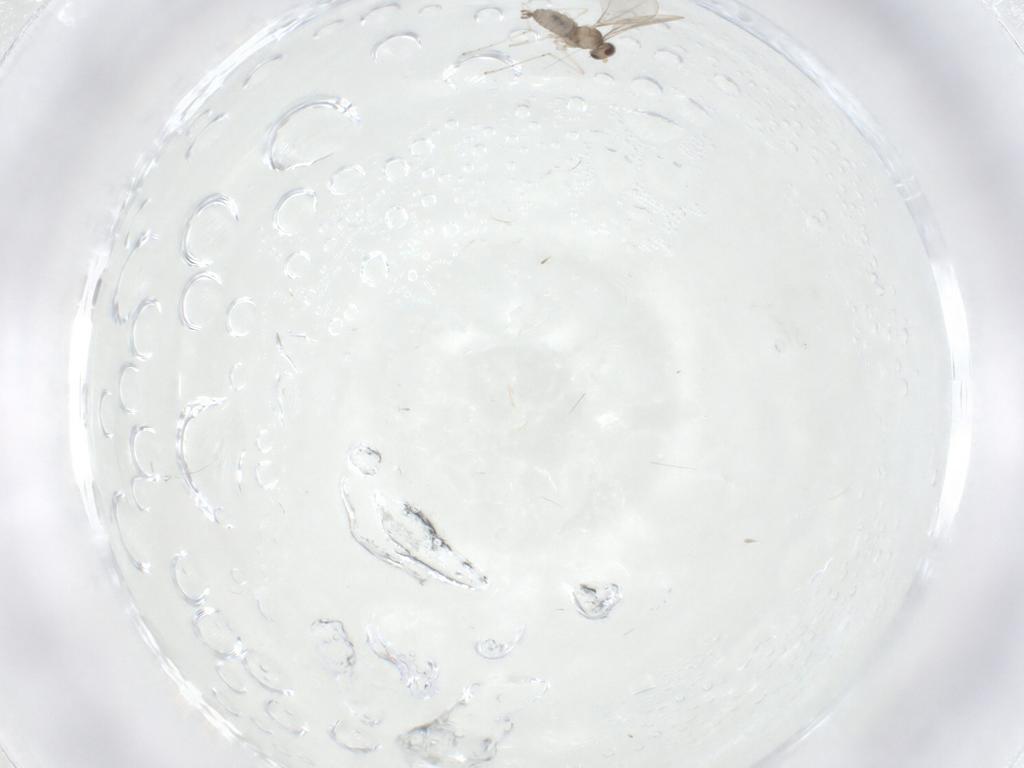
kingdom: Animalia
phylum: Arthropoda
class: Insecta
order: Diptera
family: Cecidomyiidae
